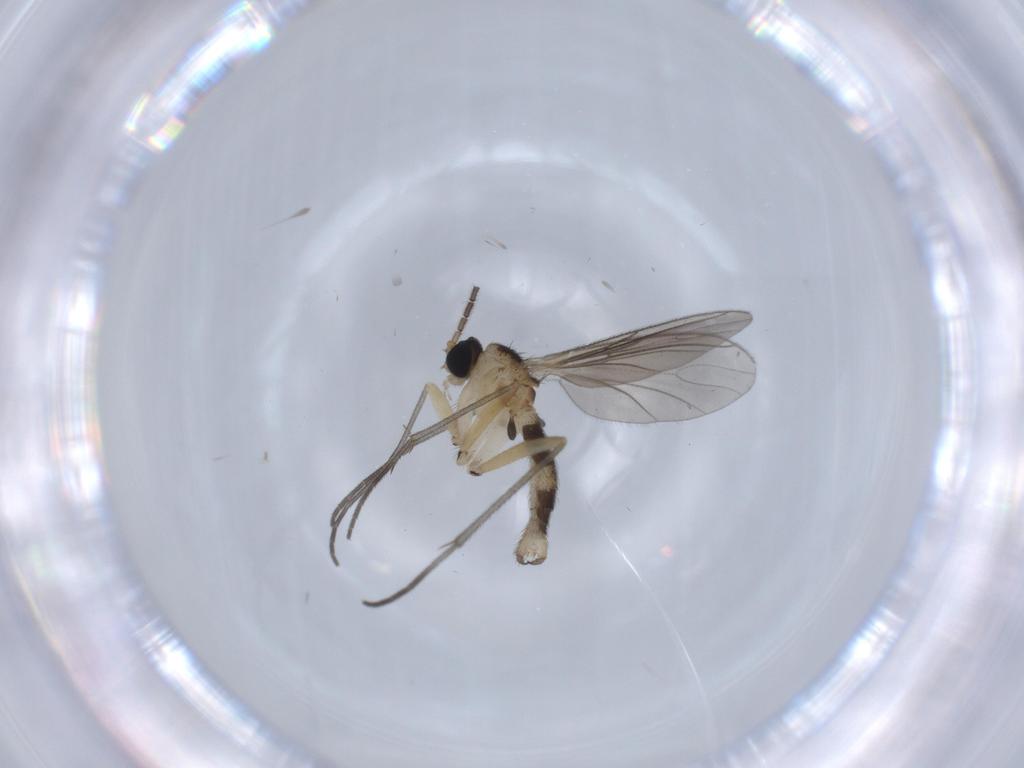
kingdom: Animalia
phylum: Arthropoda
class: Insecta
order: Diptera
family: Sciaridae
